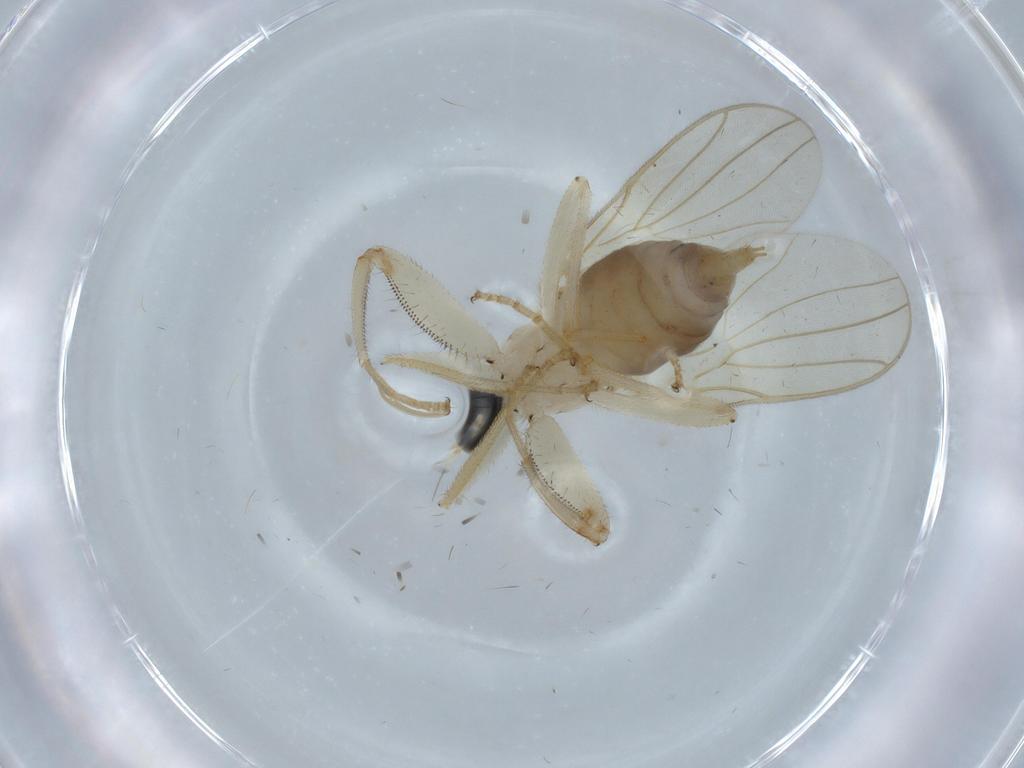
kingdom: Animalia
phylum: Arthropoda
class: Insecta
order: Diptera
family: Hybotidae
